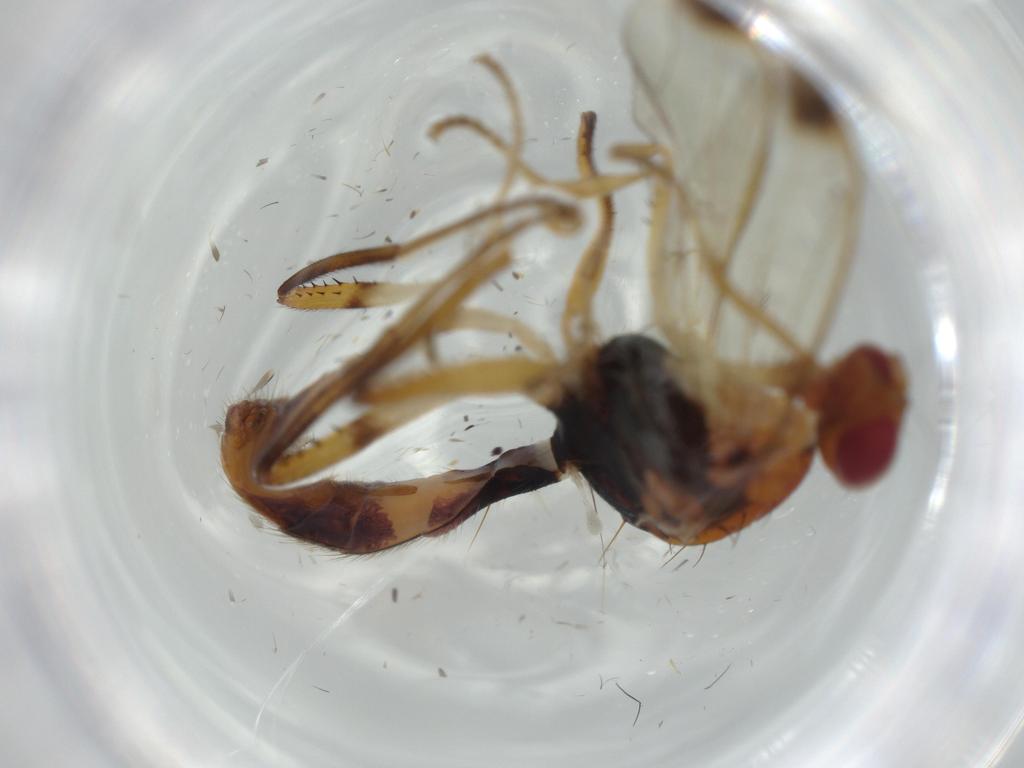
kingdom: Animalia
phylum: Arthropoda
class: Insecta
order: Diptera
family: Richardiidae
